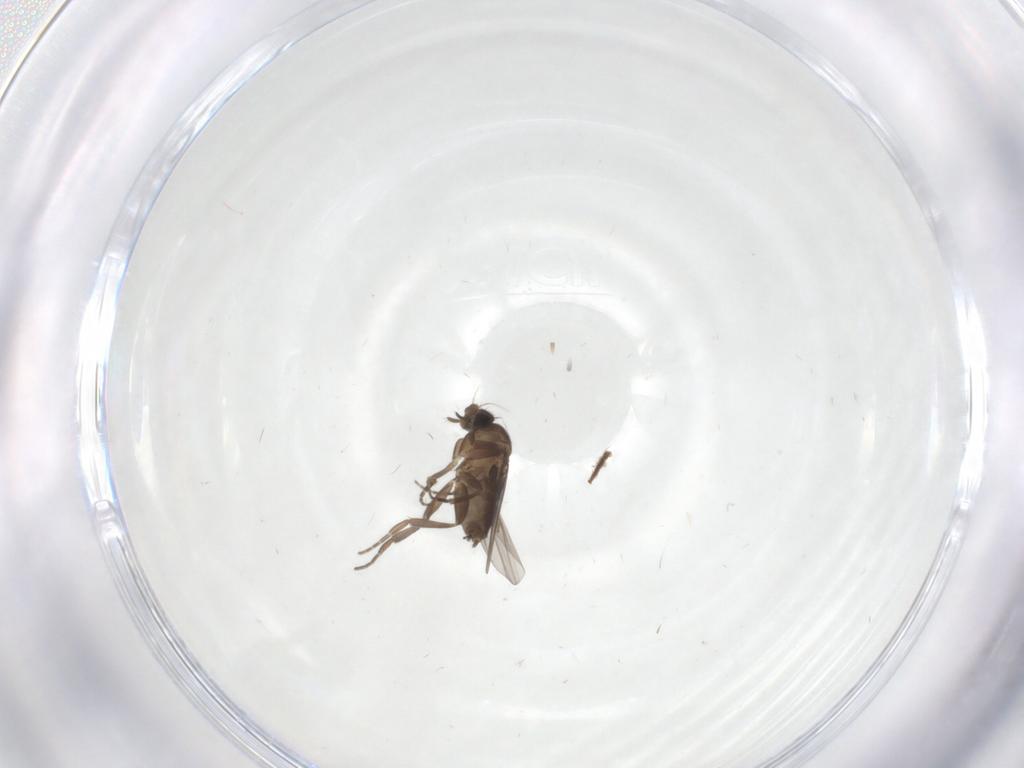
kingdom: Animalia
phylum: Arthropoda
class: Insecta
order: Diptera
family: Phoridae
